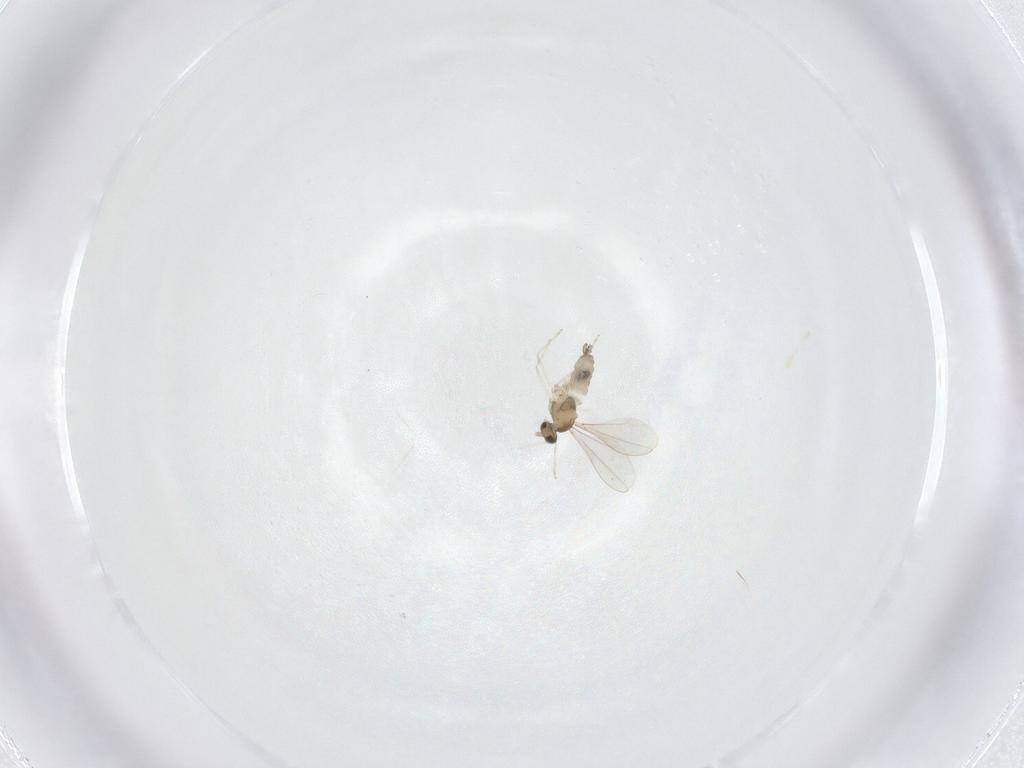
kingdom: Animalia
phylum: Arthropoda
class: Insecta
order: Diptera
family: Cecidomyiidae
